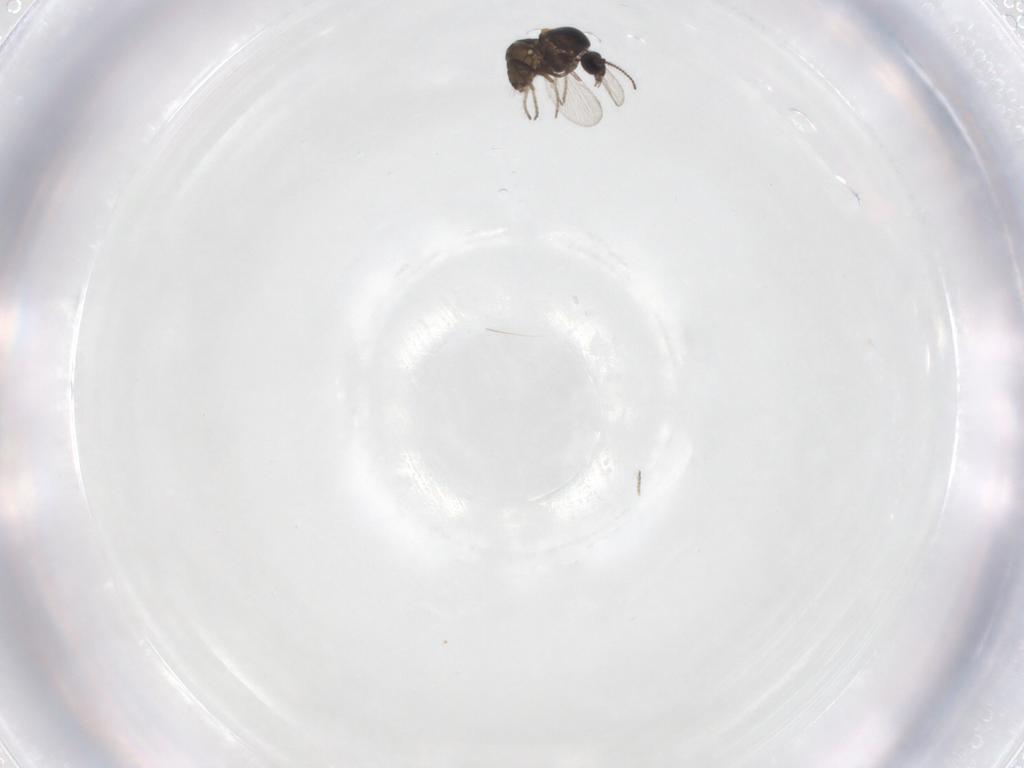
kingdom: Animalia
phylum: Arthropoda
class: Insecta
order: Diptera
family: Ceratopogonidae
